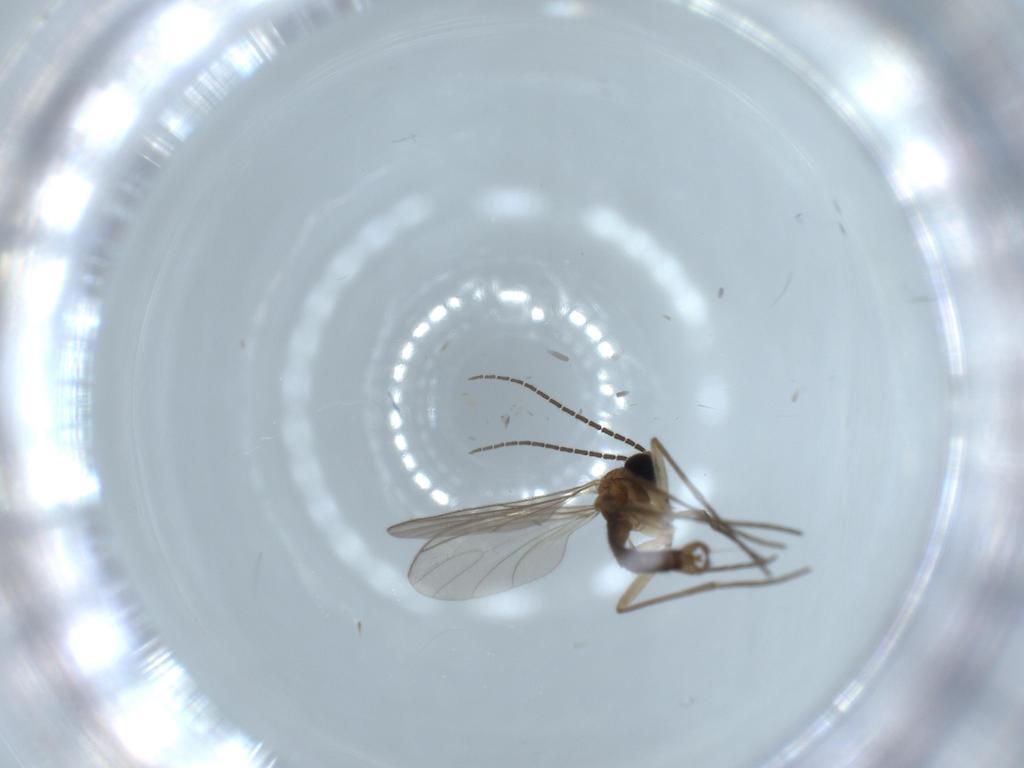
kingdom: Animalia
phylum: Arthropoda
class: Insecta
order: Diptera
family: Sciaridae
